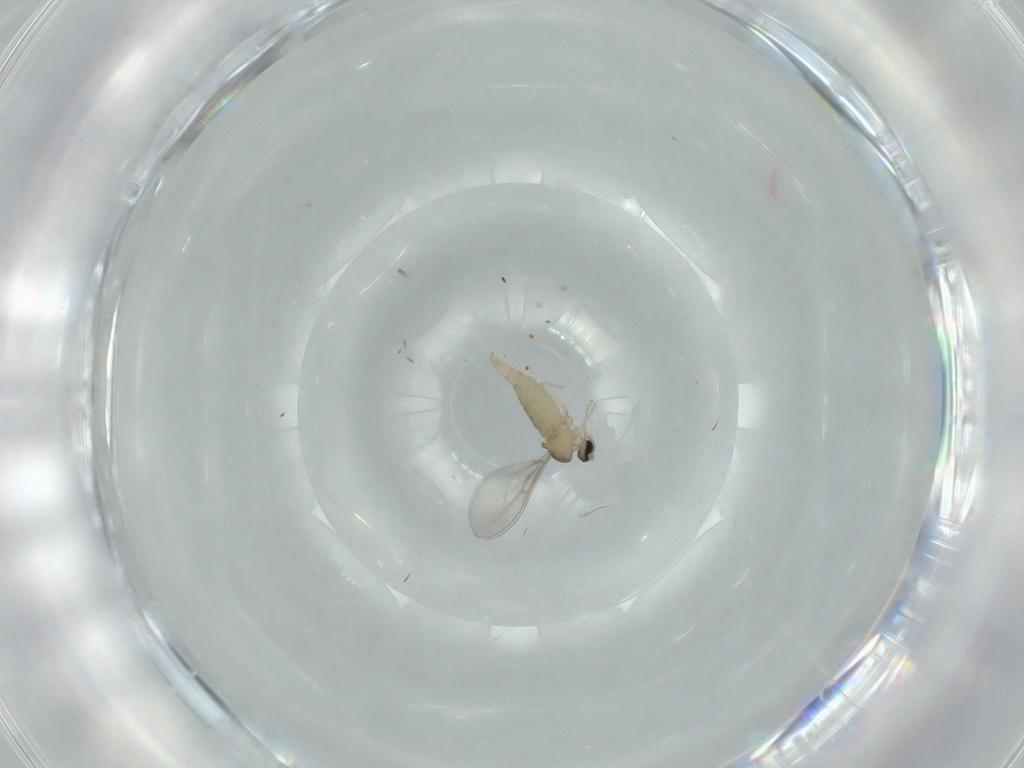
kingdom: Animalia
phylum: Arthropoda
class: Insecta
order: Diptera
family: Cecidomyiidae
